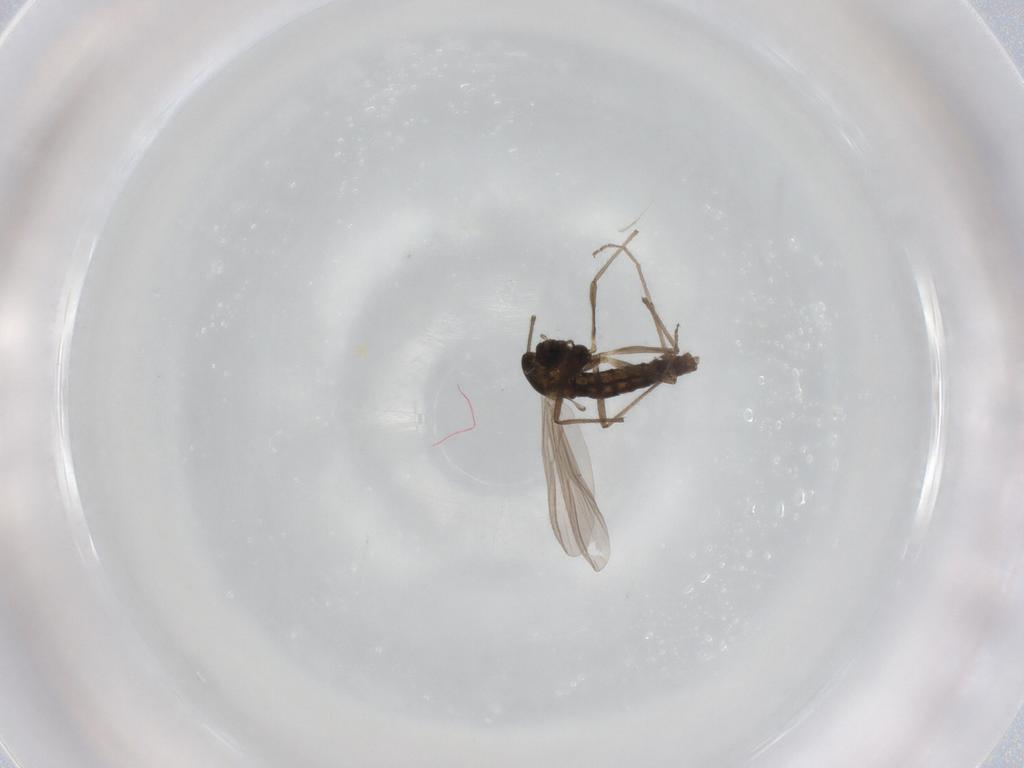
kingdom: Animalia
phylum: Arthropoda
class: Insecta
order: Diptera
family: Chironomidae
